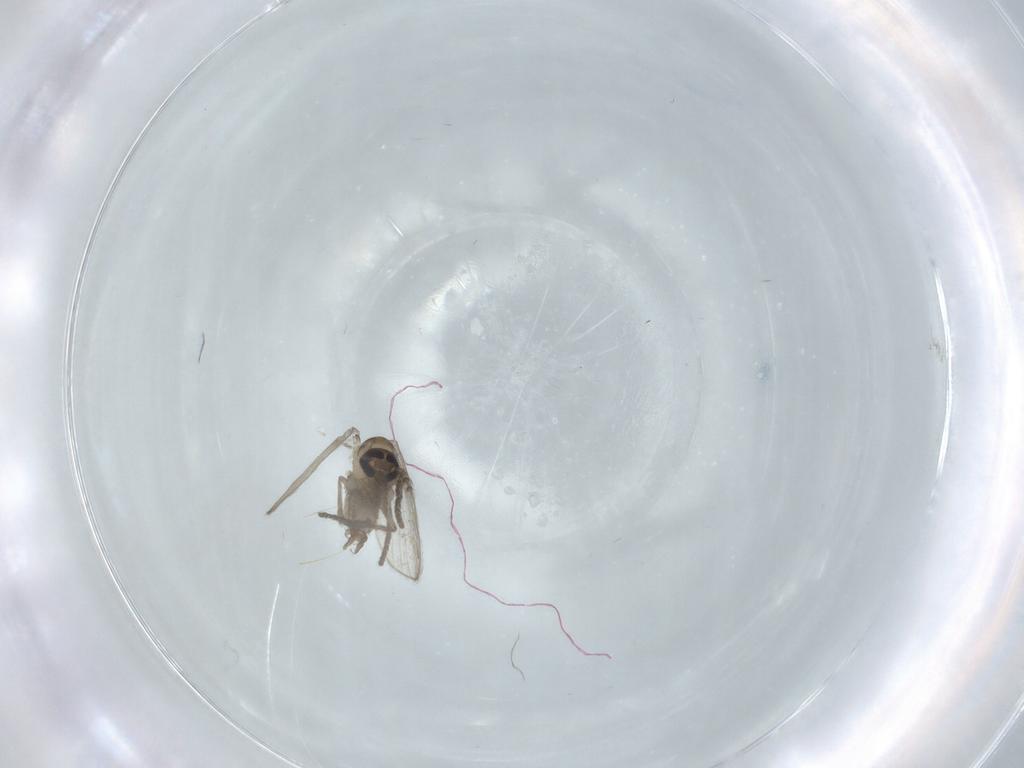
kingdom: Animalia
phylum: Arthropoda
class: Insecta
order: Diptera
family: Psychodidae
